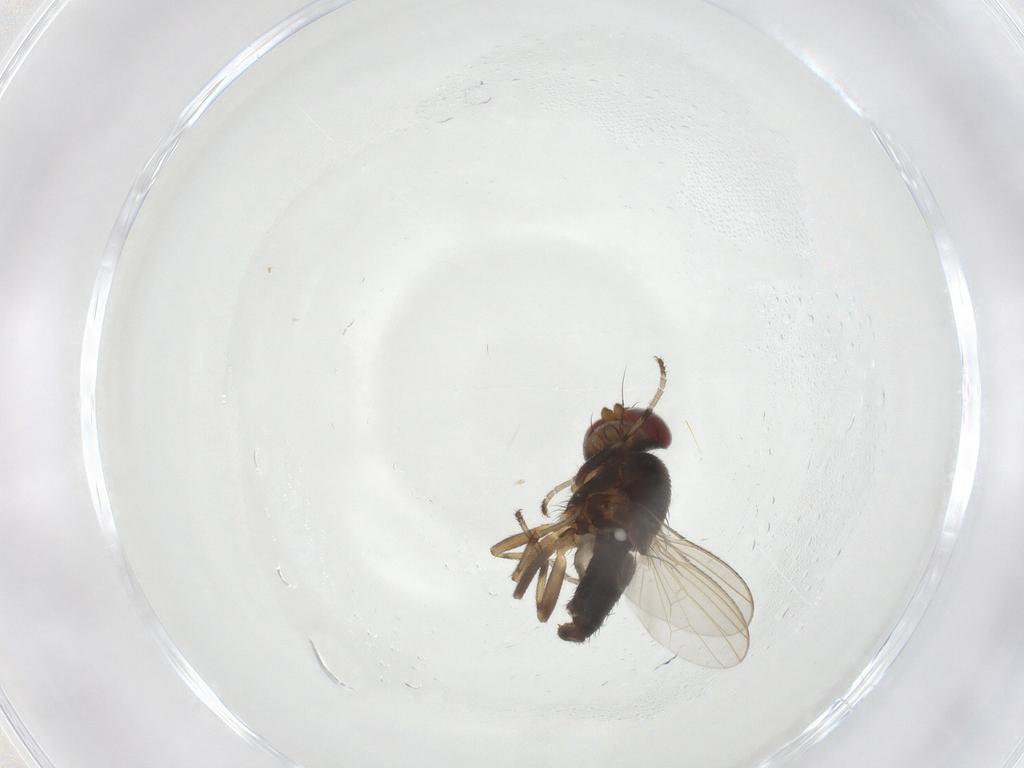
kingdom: Animalia
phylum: Arthropoda
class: Insecta
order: Diptera
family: Heleomyzidae
